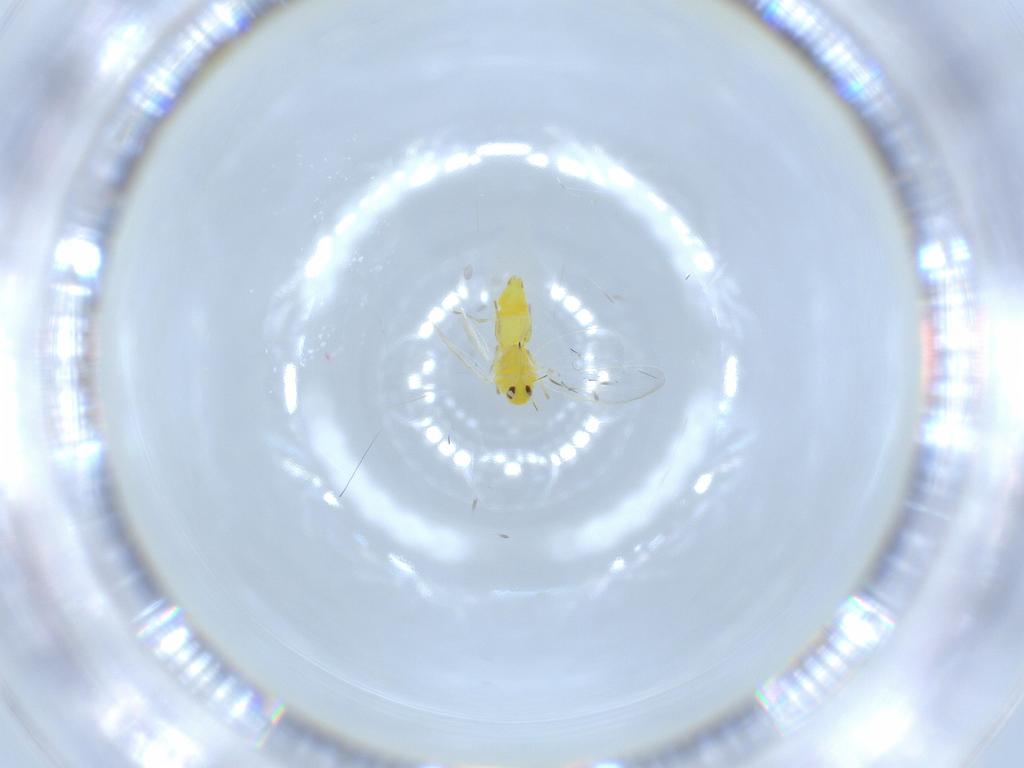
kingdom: Animalia
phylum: Arthropoda
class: Insecta
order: Hemiptera
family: Aleyrodidae
